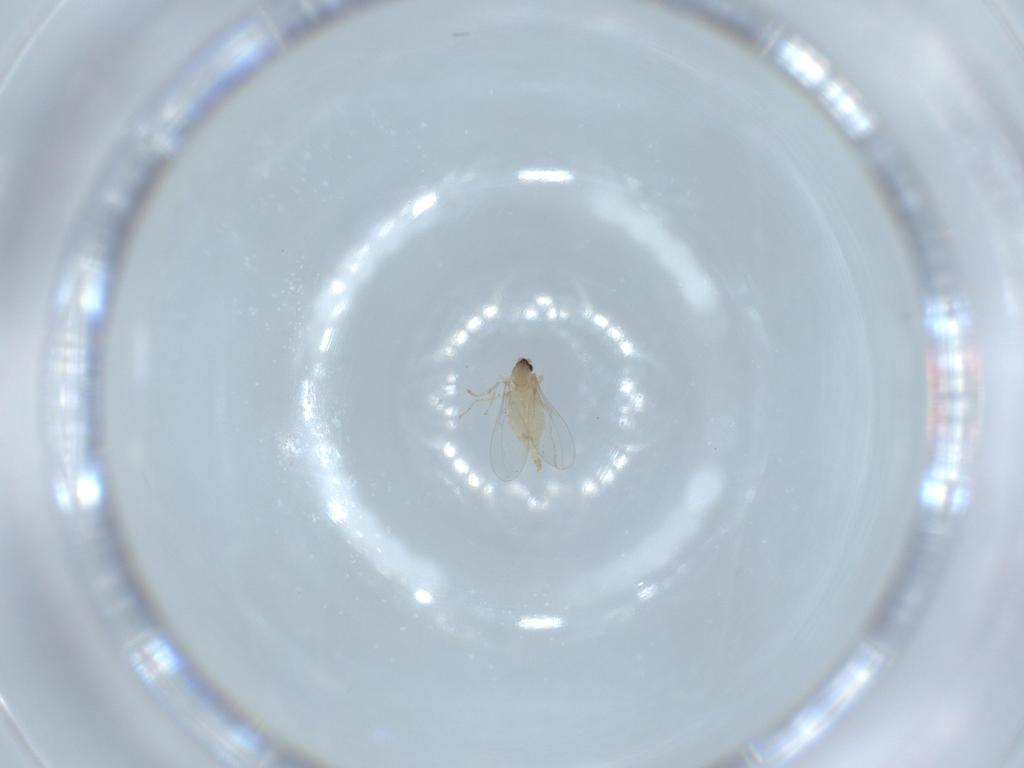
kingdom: Animalia
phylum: Arthropoda
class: Insecta
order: Diptera
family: Cecidomyiidae
